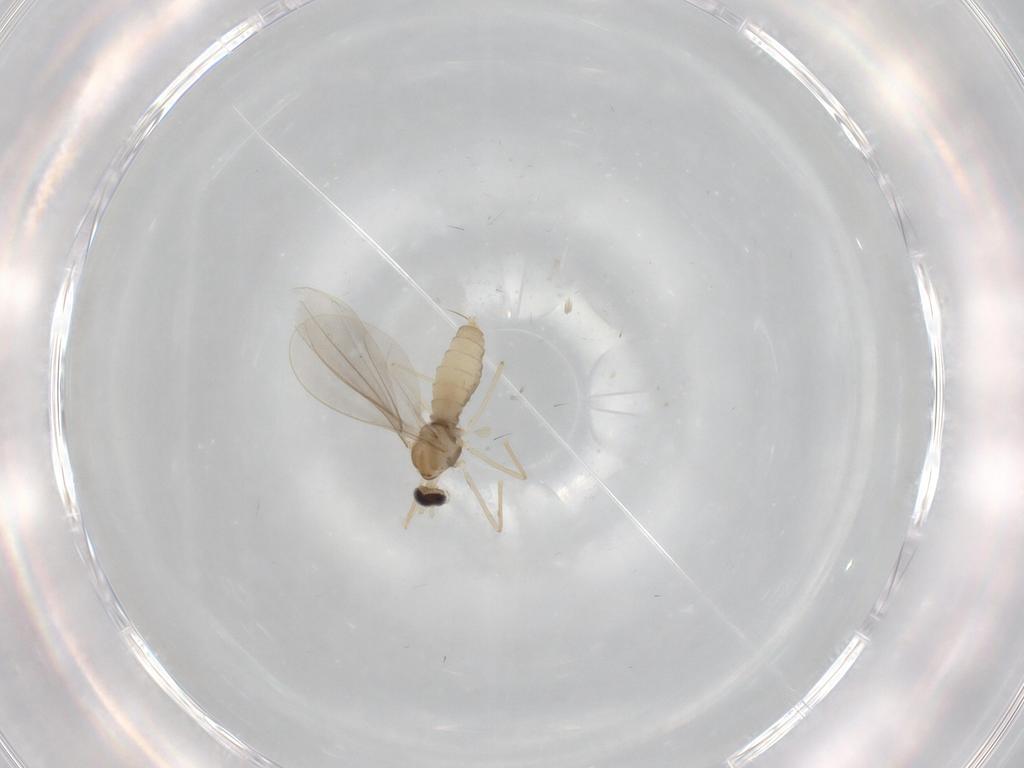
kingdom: Animalia
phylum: Arthropoda
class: Insecta
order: Diptera
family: Cecidomyiidae
